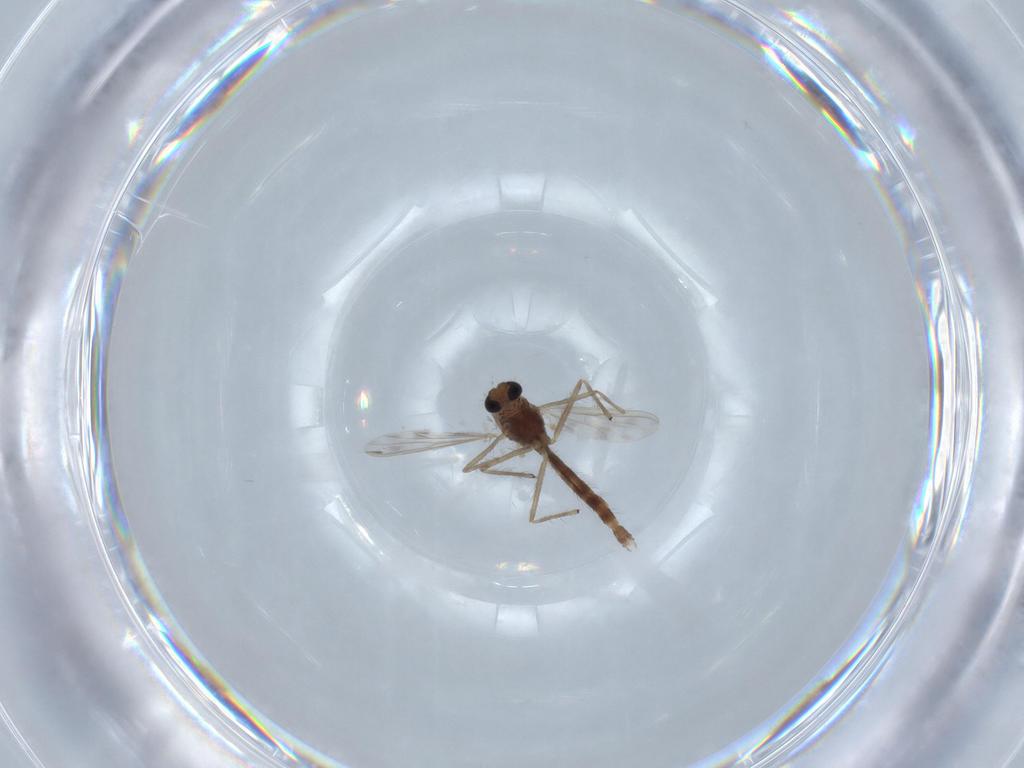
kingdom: Animalia
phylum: Arthropoda
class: Insecta
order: Diptera
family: Chironomidae
